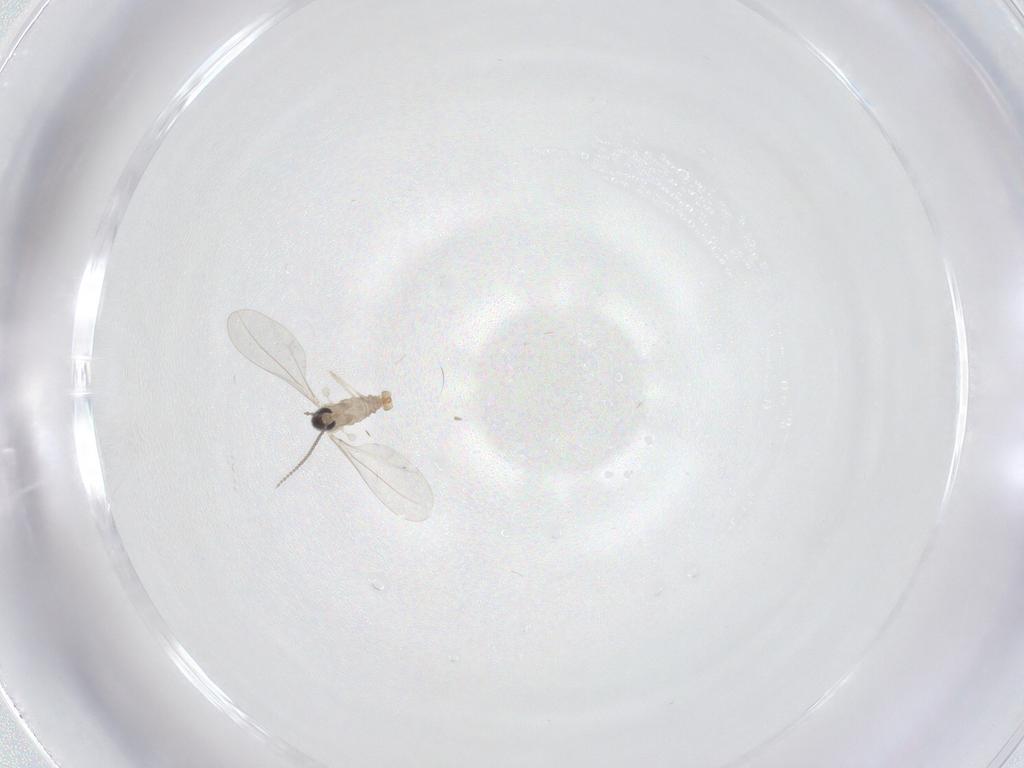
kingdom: Animalia
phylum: Arthropoda
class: Insecta
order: Diptera
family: Cecidomyiidae
